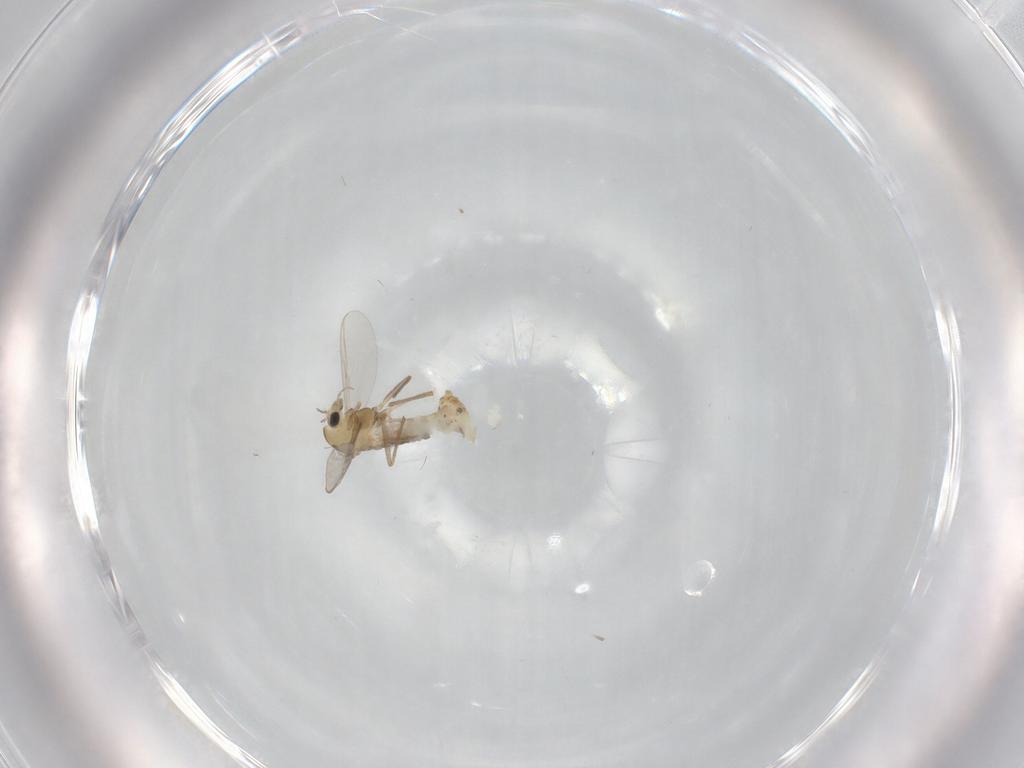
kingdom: Animalia
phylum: Arthropoda
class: Insecta
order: Diptera
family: Chironomidae
